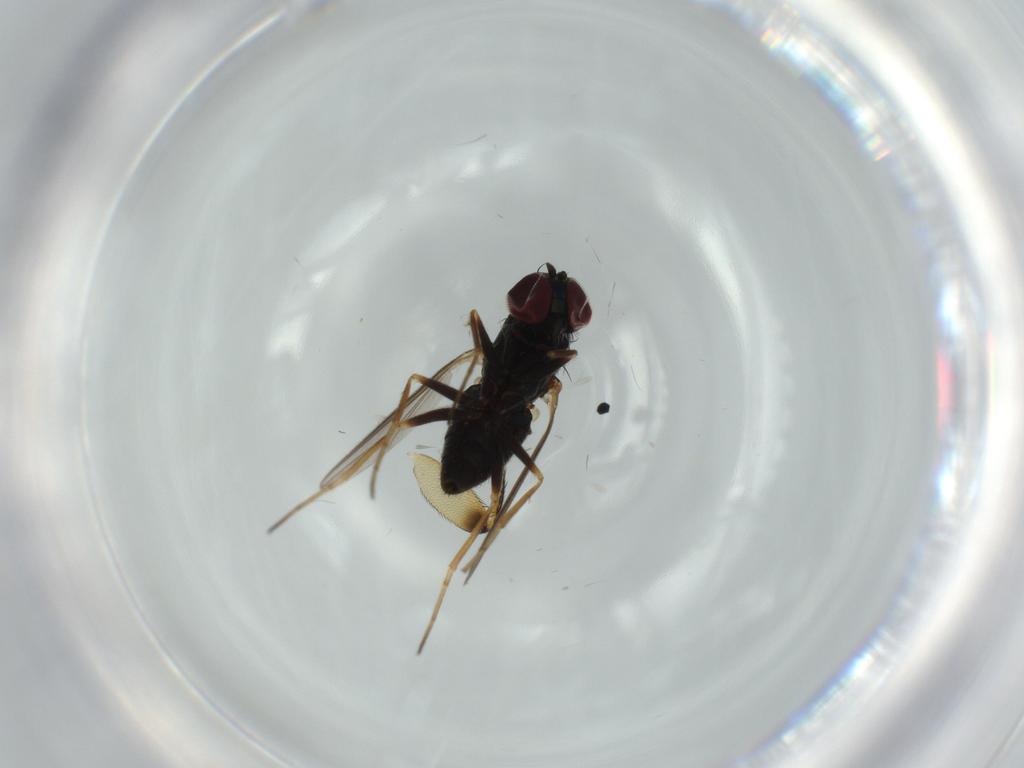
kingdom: Animalia
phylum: Arthropoda
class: Insecta
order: Diptera
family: Dolichopodidae
